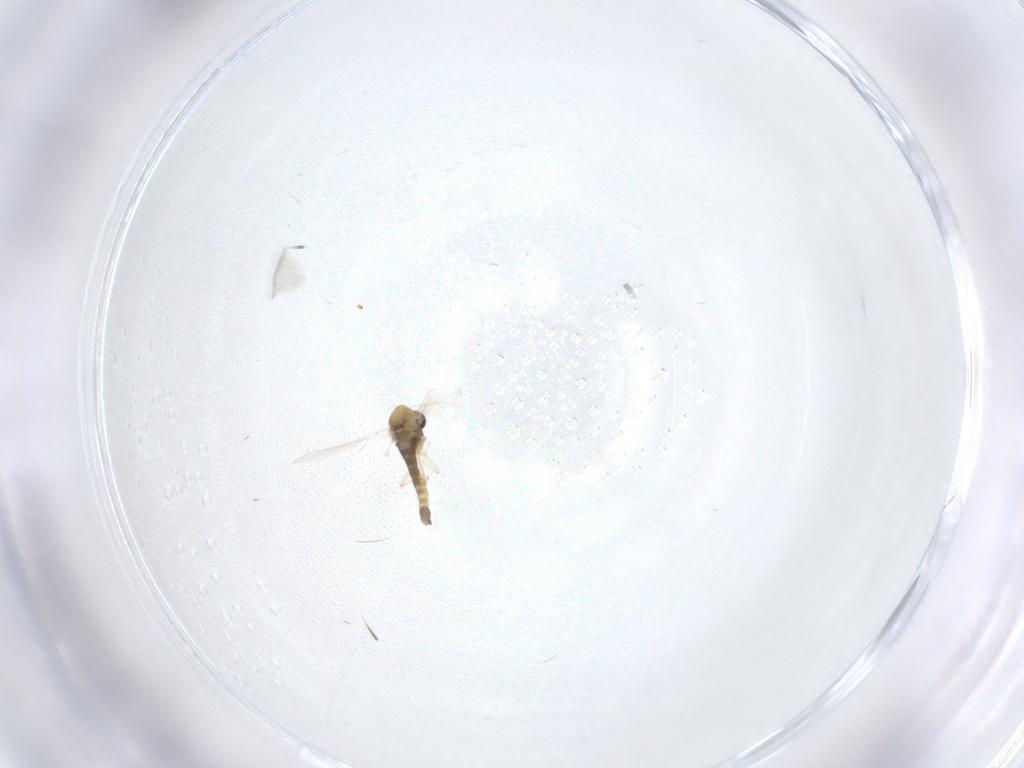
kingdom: Animalia
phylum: Arthropoda
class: Insecta
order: Diptera
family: Chironomidae
